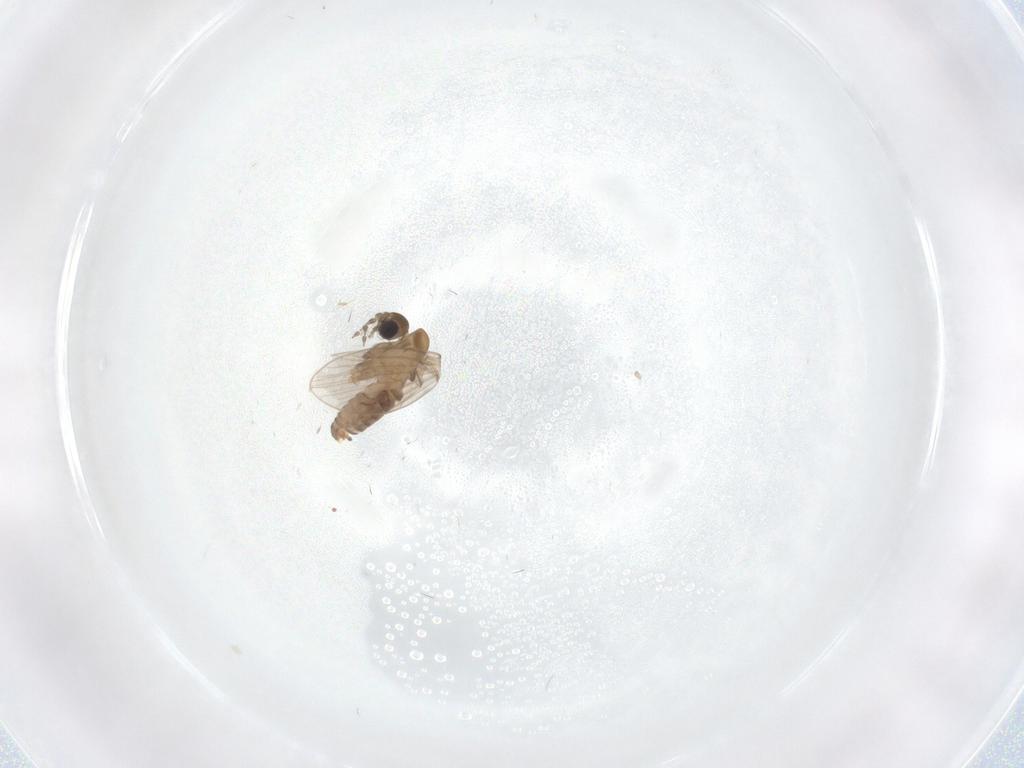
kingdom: Animalia
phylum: Arthropoda
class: Insecta
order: Diptera
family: Psychodidae
